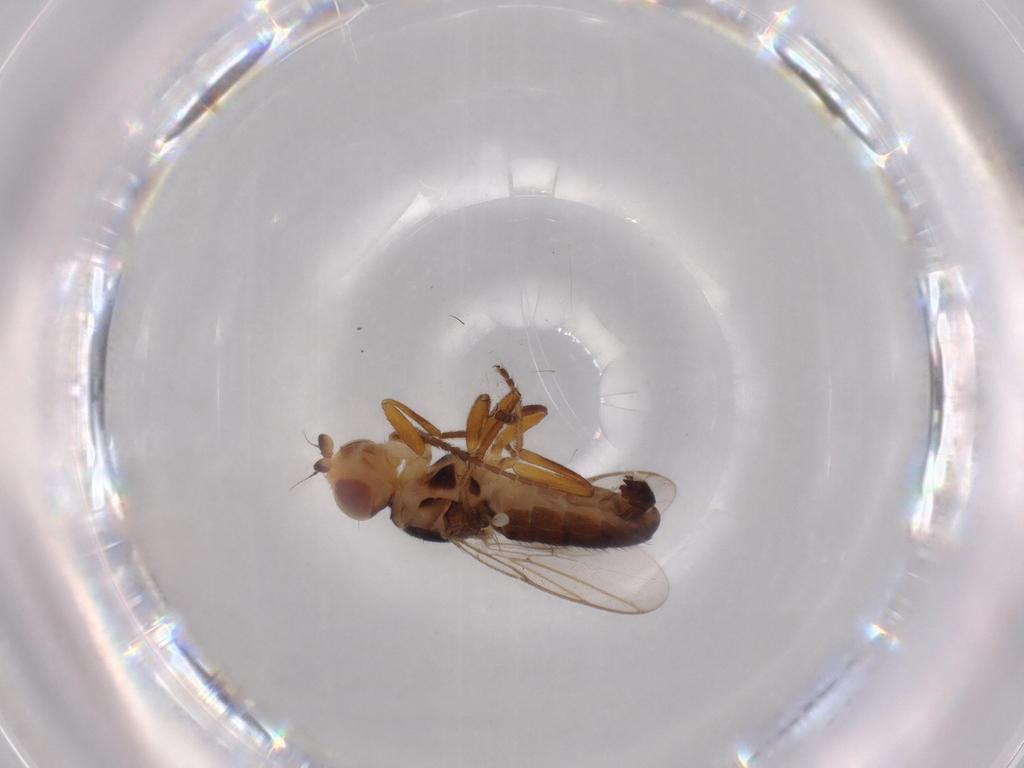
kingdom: Animalia
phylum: Arthropoda
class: Insecta
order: Diptera
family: Chloropidae
